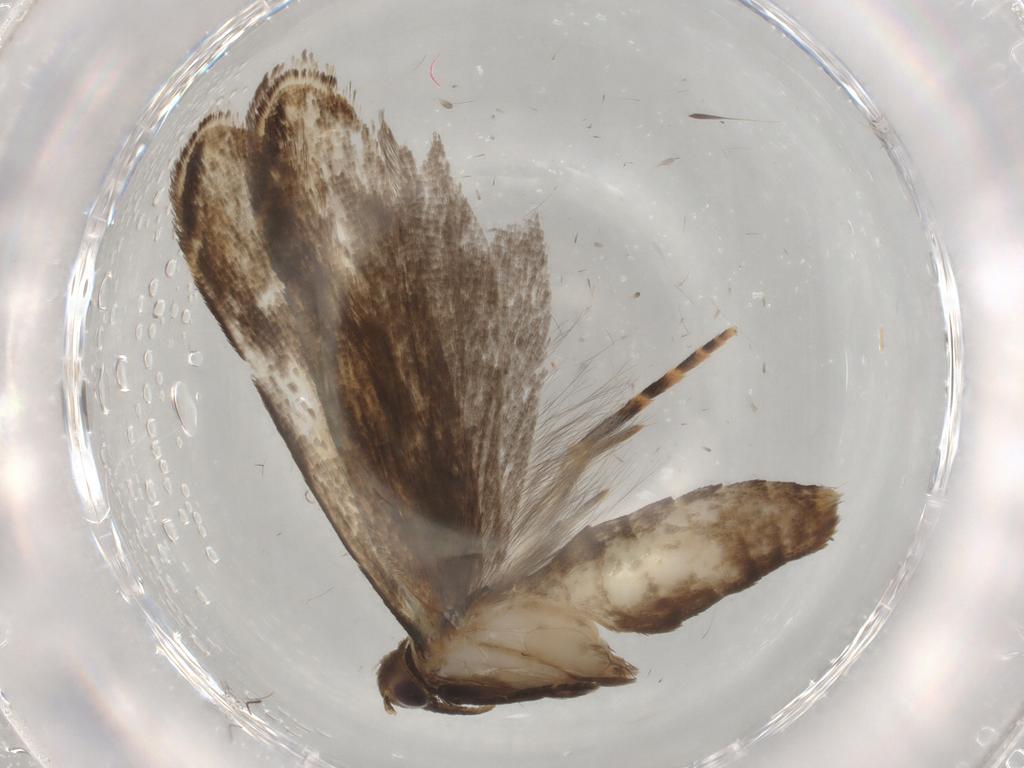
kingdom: Animalia
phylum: Arthropoda
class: Insecta
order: Lepidoptera
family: Gelechiidae
